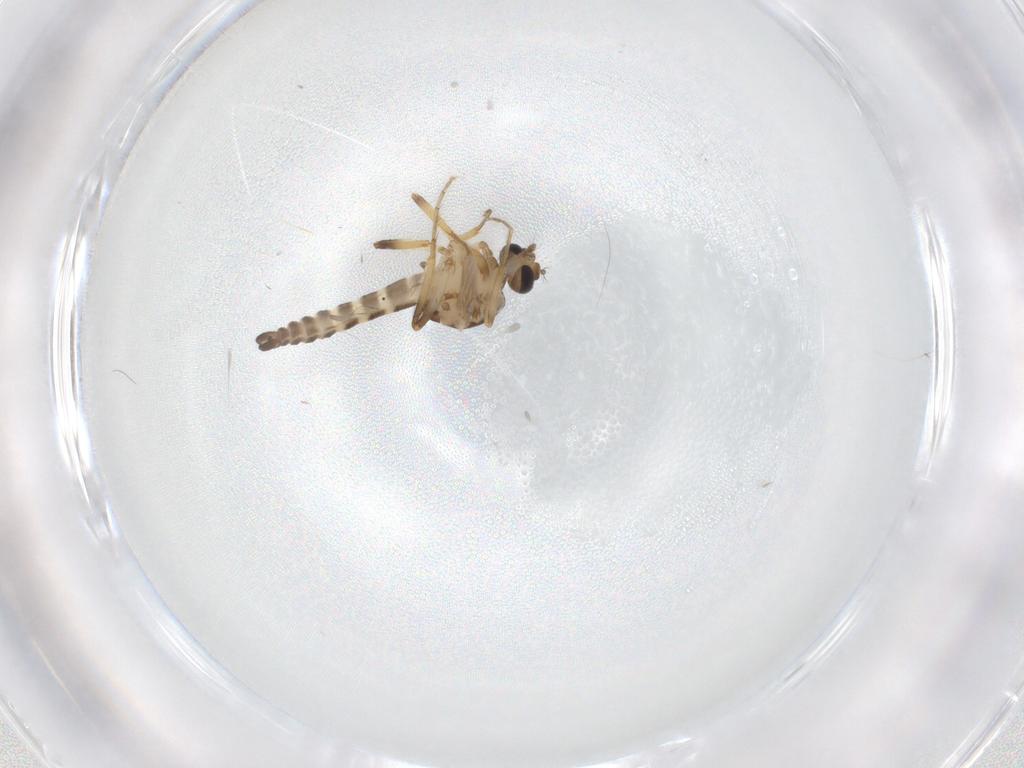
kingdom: Animalia
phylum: Arthropoda
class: Insecta
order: Diptera
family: Ceratopogonidae
